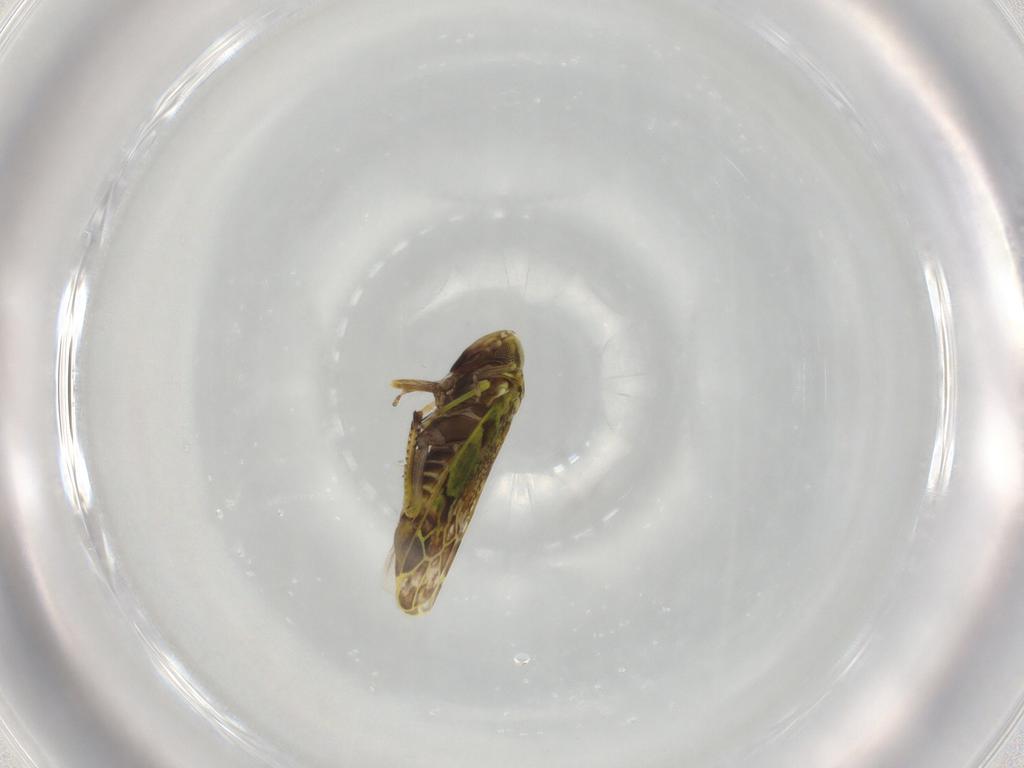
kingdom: Animalia
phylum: Arthropoda
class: Insecta
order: Hemiptera
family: Cicadellidae
